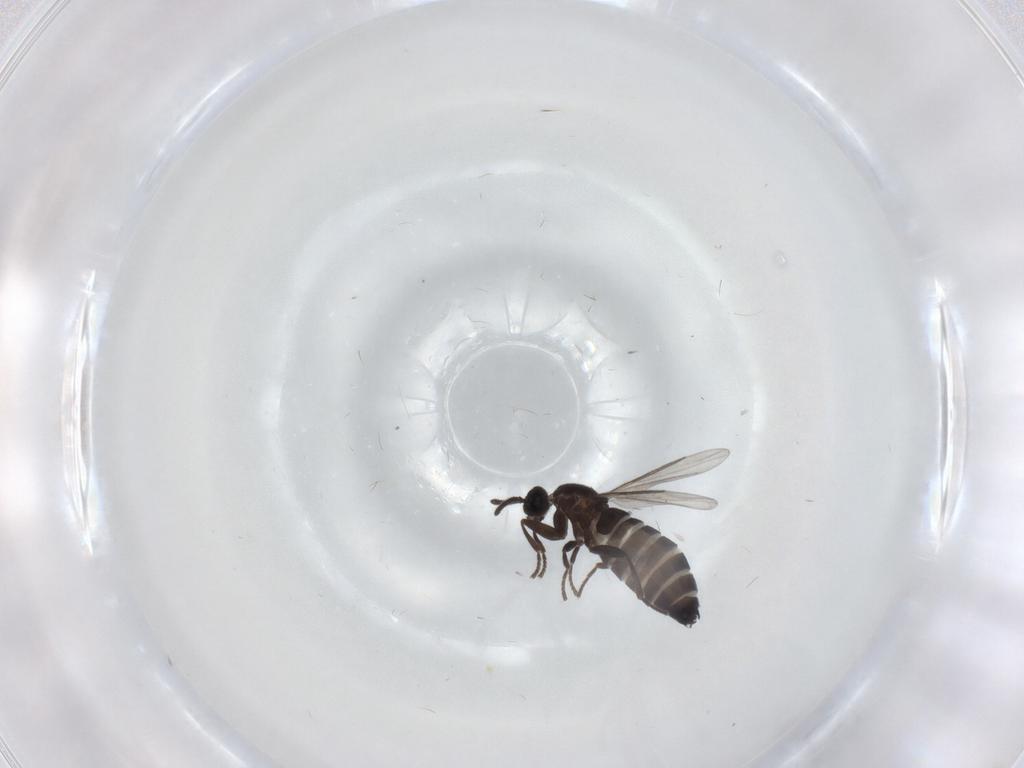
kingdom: Animalia
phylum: Arthropoda
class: Insecta
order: Diptera
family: Scatopsidae
